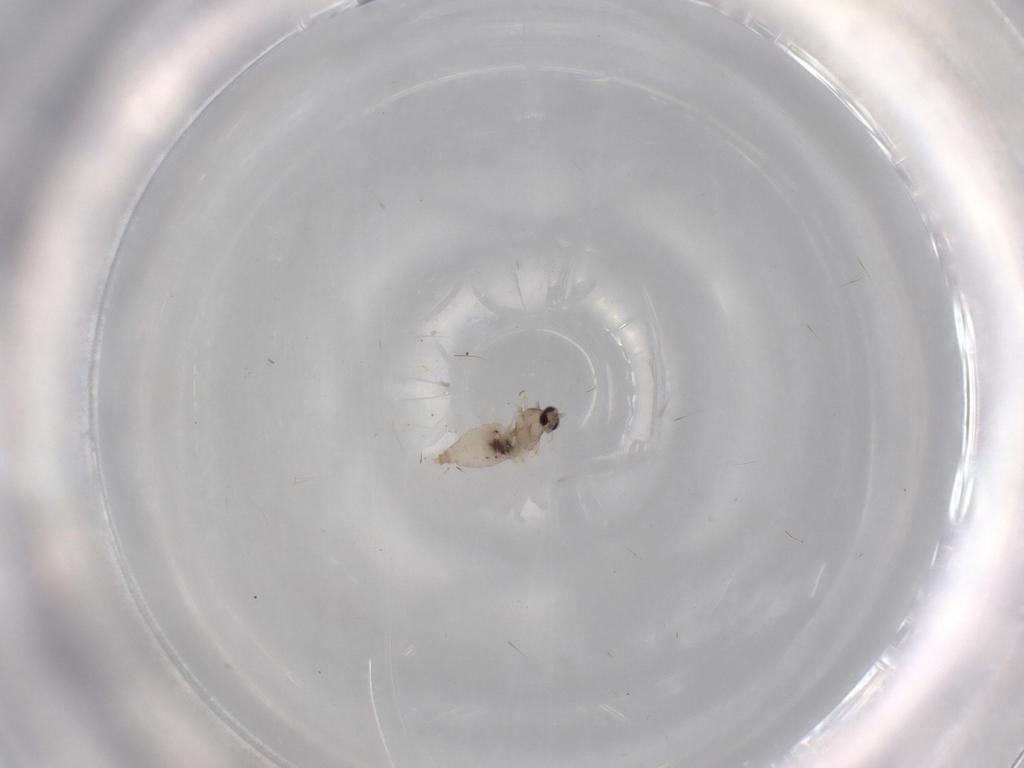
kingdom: Animalia
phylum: Arthropoda
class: Insecta
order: Diptera
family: Cecidomyiidae
